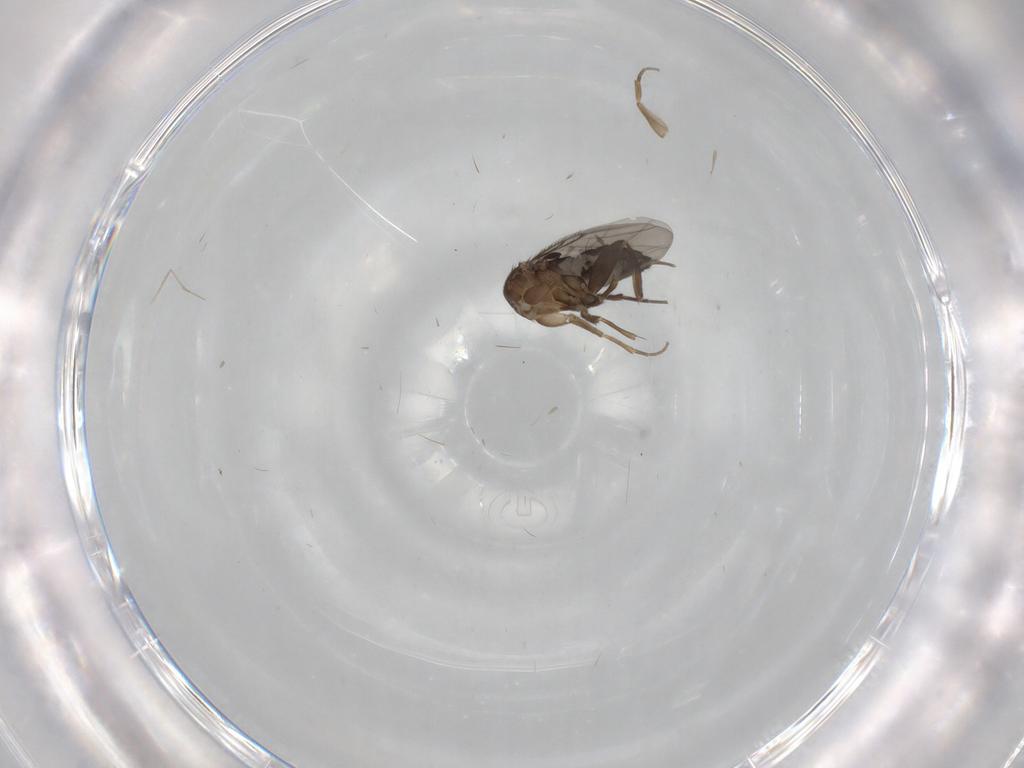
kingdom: Animalia
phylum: Arthropoda
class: Insecta
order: Diptera
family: Phoridae
